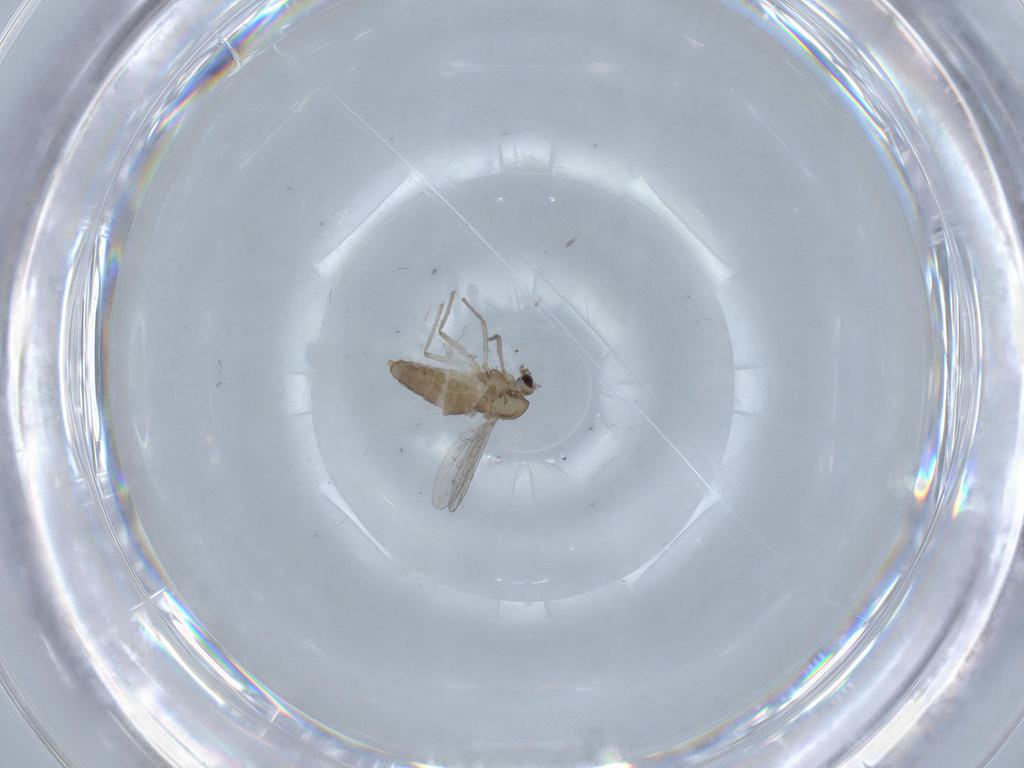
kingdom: Animalia
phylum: Arthropoda
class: Insecta
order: Diptera
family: Chironomidae
